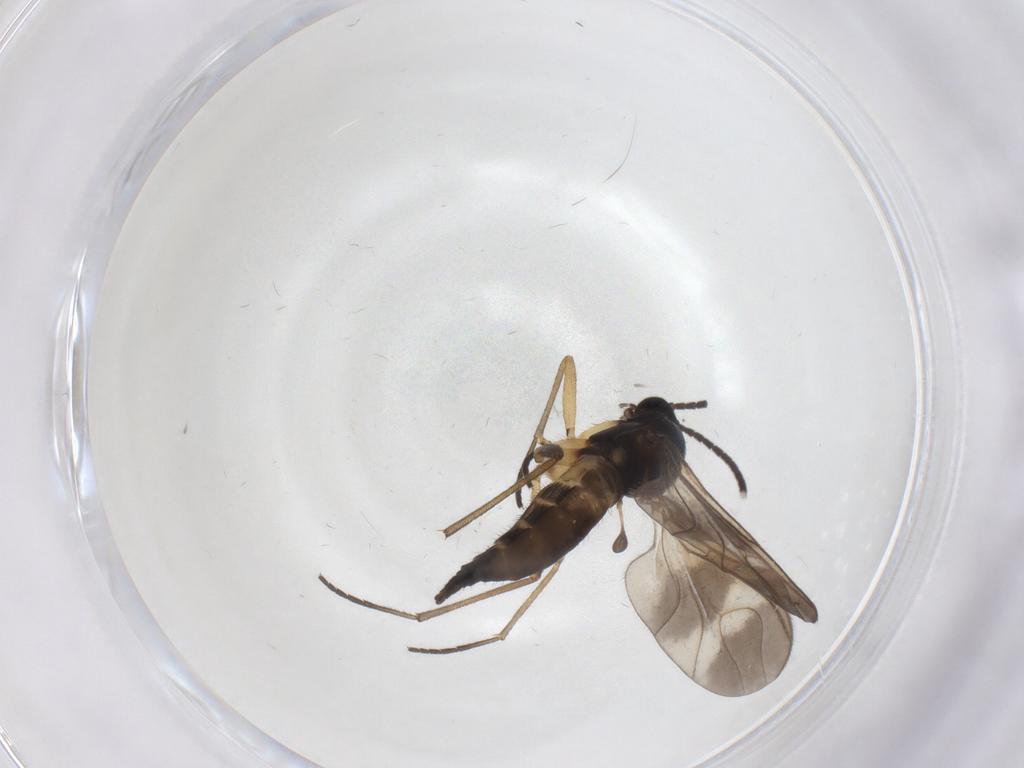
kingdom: Animalia
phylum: Arthropoda
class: Insecta
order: Diptera
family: Sciaridae
